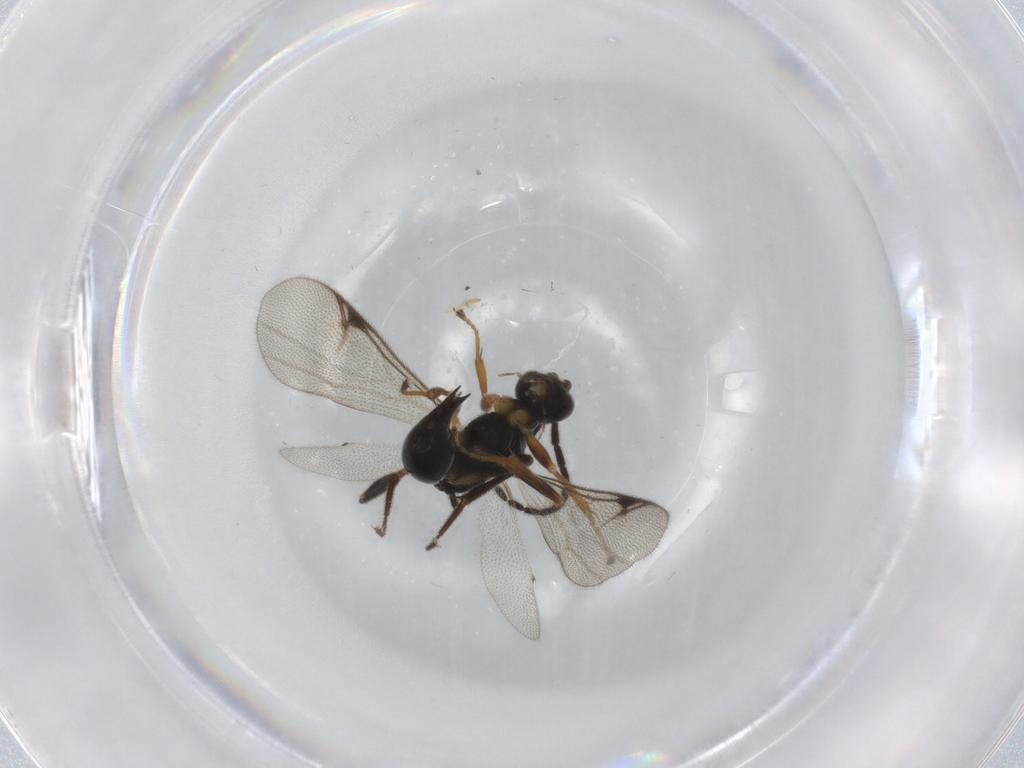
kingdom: Animalia
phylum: Arthropoda
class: Insecta
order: Hymenoptera
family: Proctotrupidae
